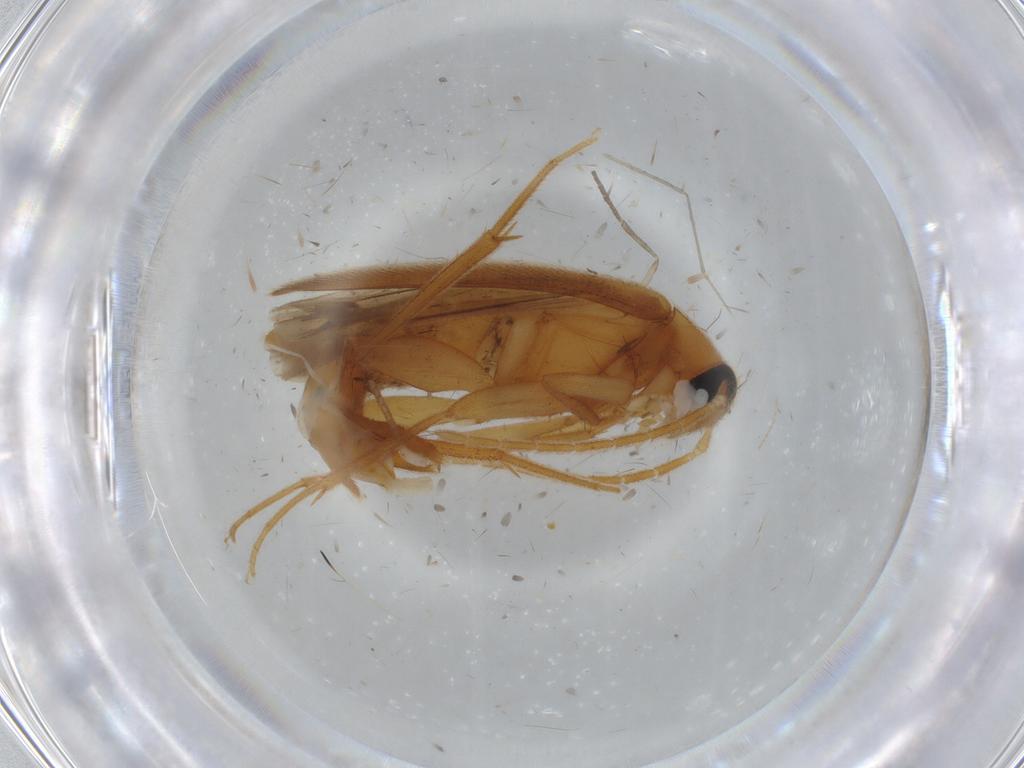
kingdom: Animalia
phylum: Arthropoda
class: Insecta
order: Coleoptera
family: Scraptiidae
